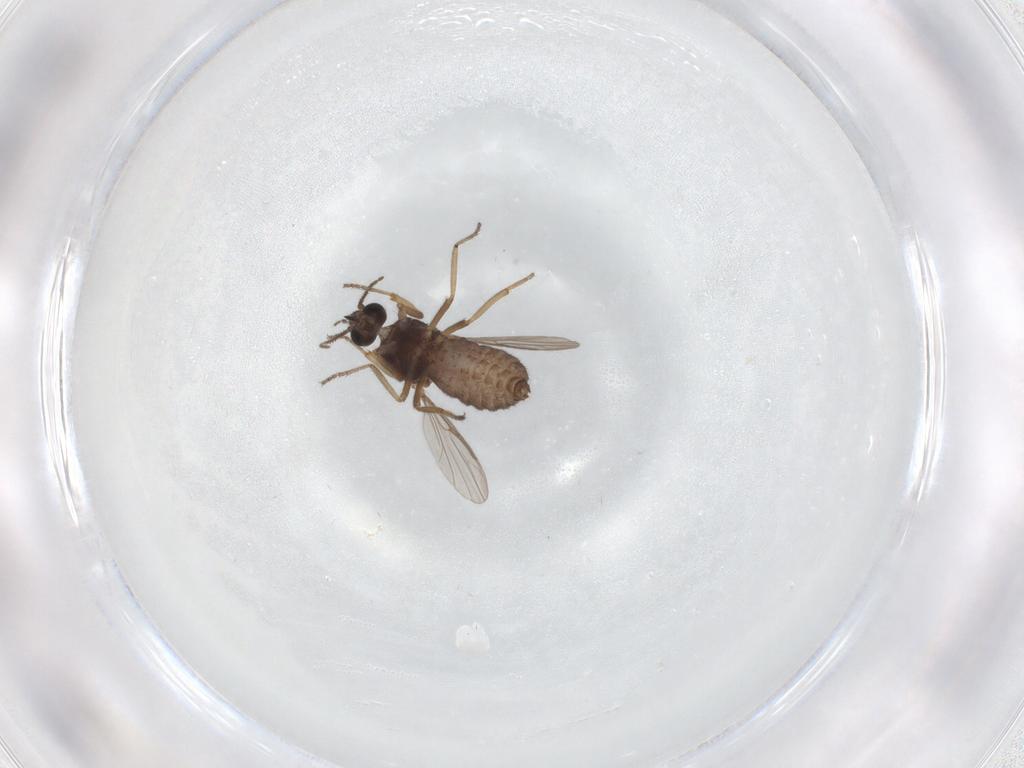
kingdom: Animalia
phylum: Arthropoda
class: Insecta
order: Diptera
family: Ceratopogonidae
